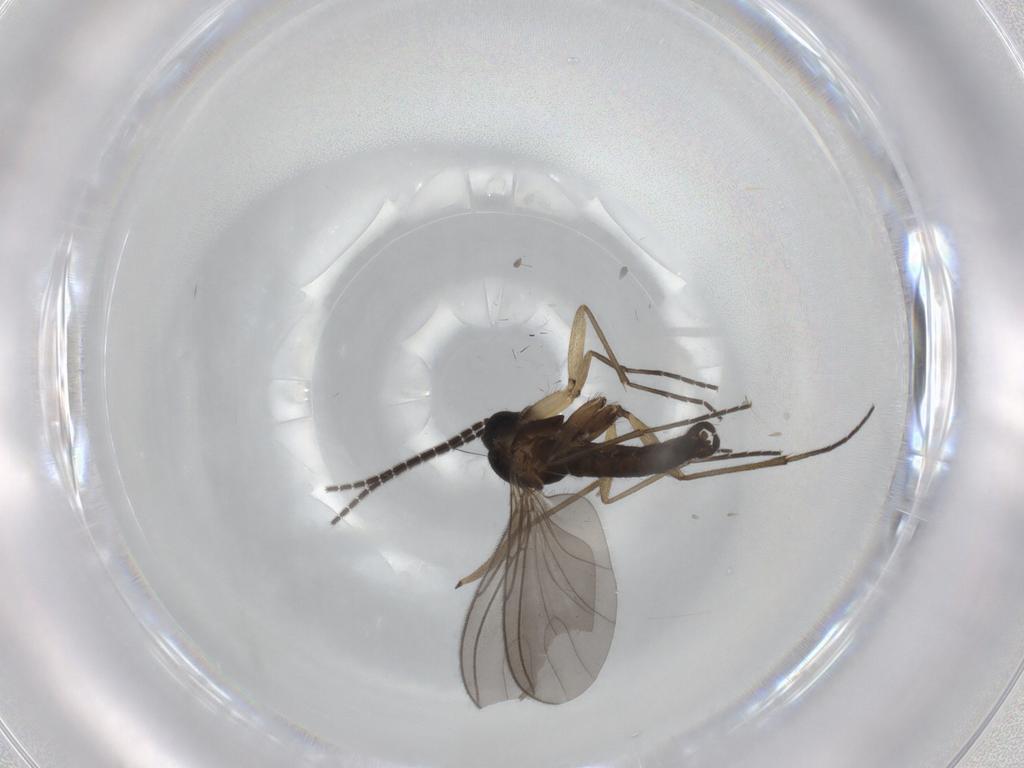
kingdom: Animalia
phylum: Arthropoda
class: Insecta
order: Diptera
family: Sciaridae
